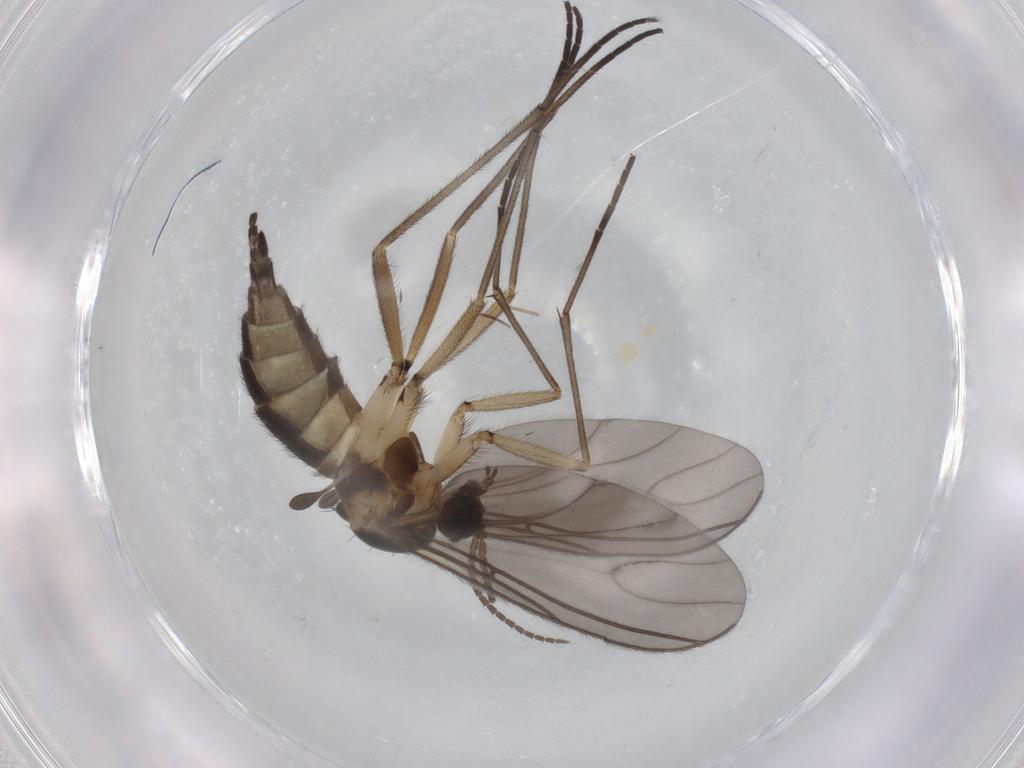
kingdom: Animalia
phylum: Arthropoda
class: Insecta
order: Diptera
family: Sciaridae
